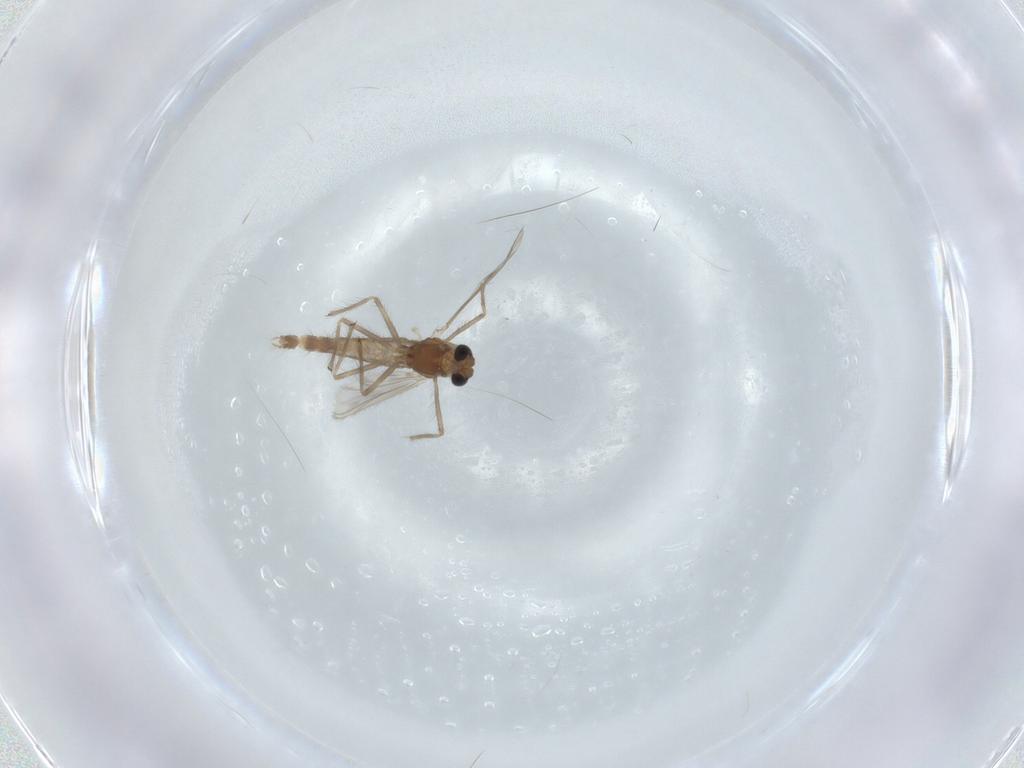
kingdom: Animalia
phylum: Arthropoda
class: Insecta
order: Diptera
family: Chironomidae
